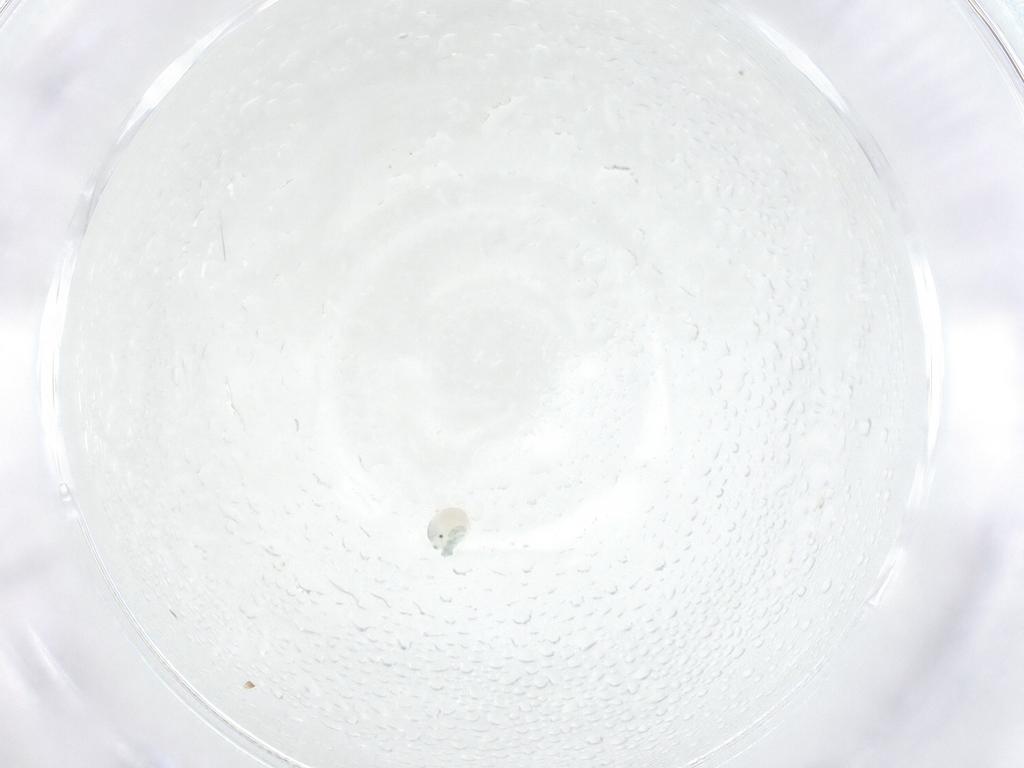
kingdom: Animalia
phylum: Arthropoda
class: Arachnida
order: Trombidiformes
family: Arrenuridae
